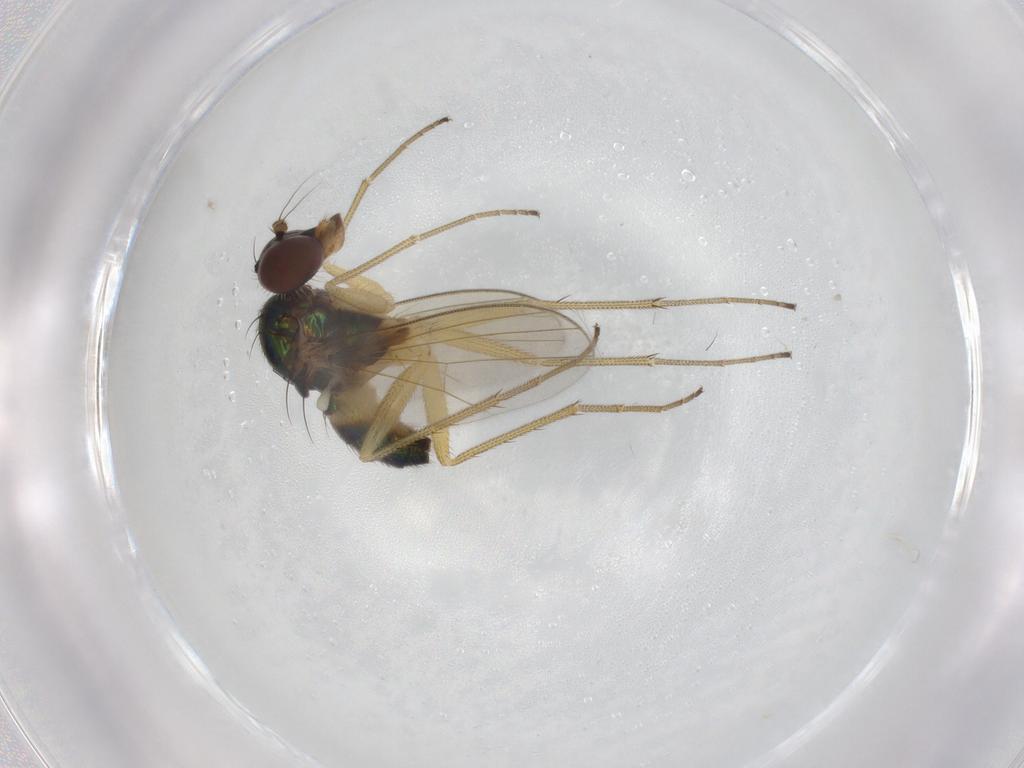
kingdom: Animalia
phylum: Arthropoda
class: Insecta
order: Diptera
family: Dolichopodidae
